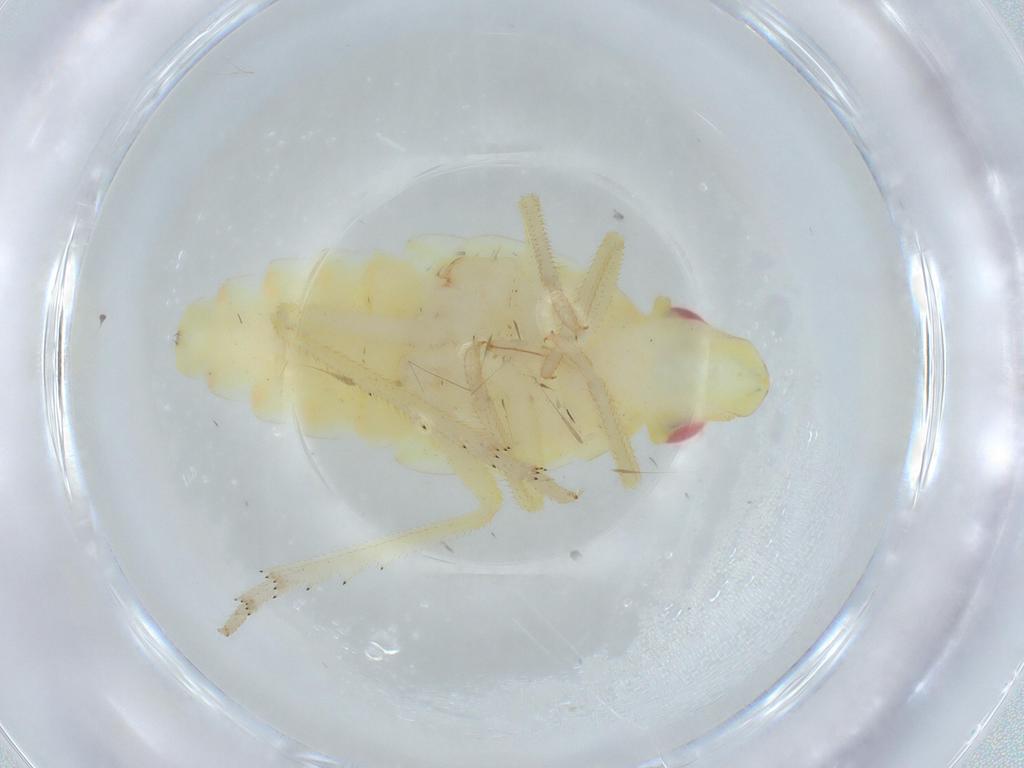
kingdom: Animalia
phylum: Arthropoda
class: Insecta
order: Hemiptera
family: Tropiduchidae
